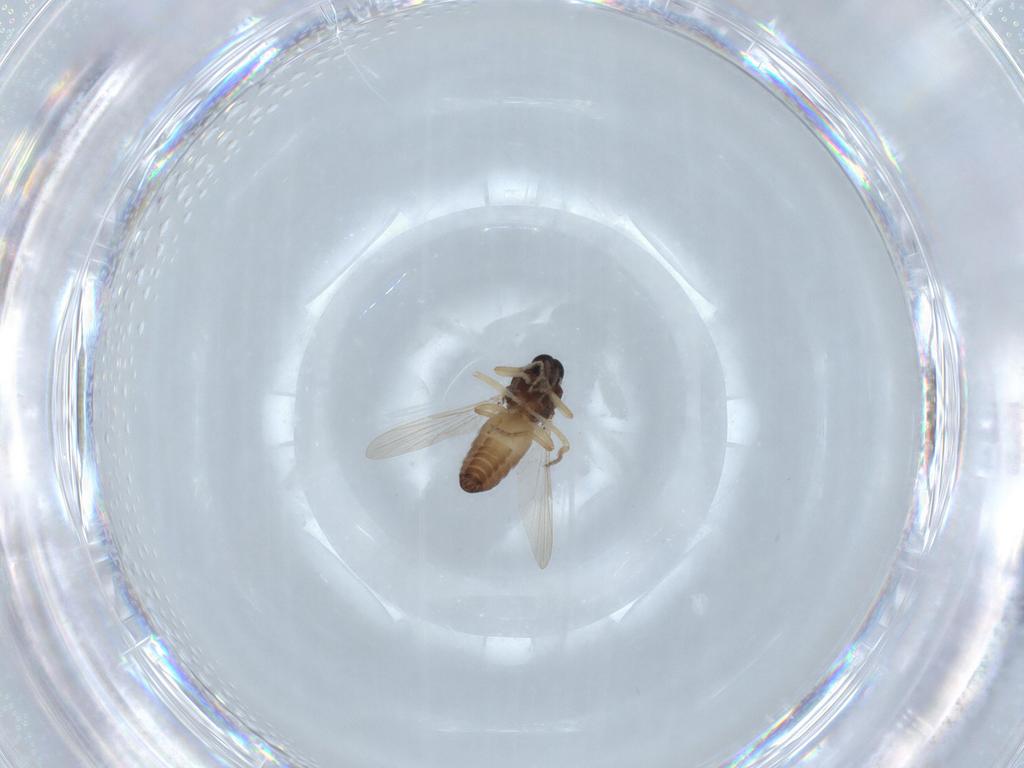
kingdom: Animalia
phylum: Arthropoda
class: Insecta
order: Diptera
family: Ceratopogonidae
